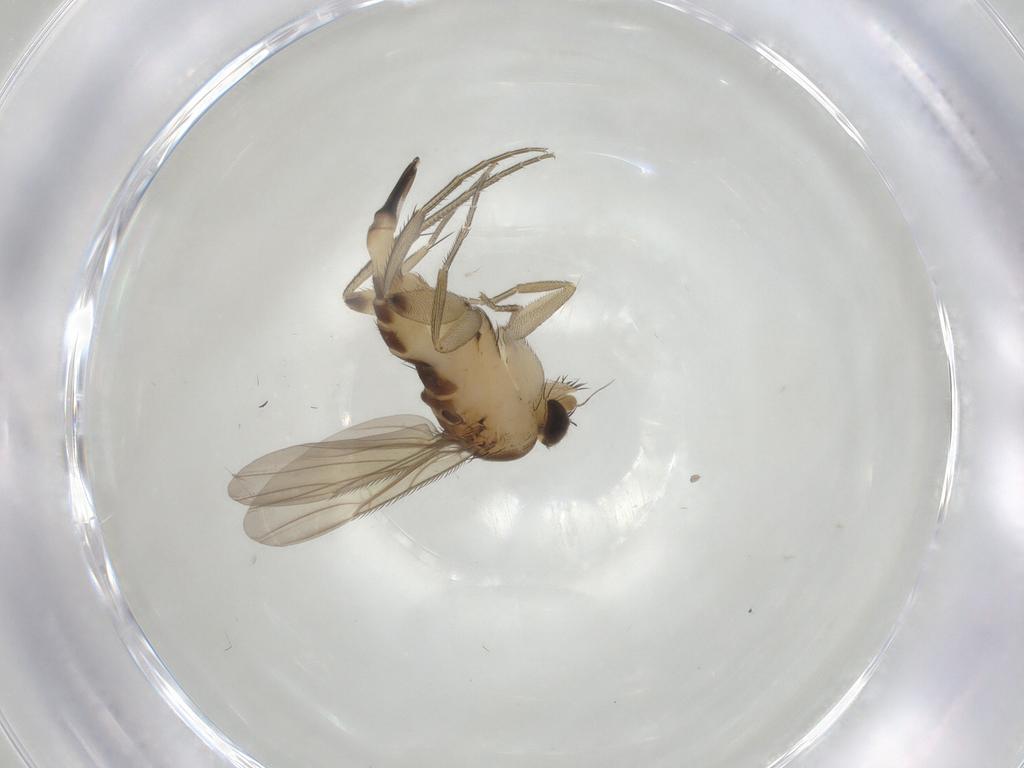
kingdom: Animalia
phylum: Arthropoda
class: Insecta
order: Diptera
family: Phoridae
